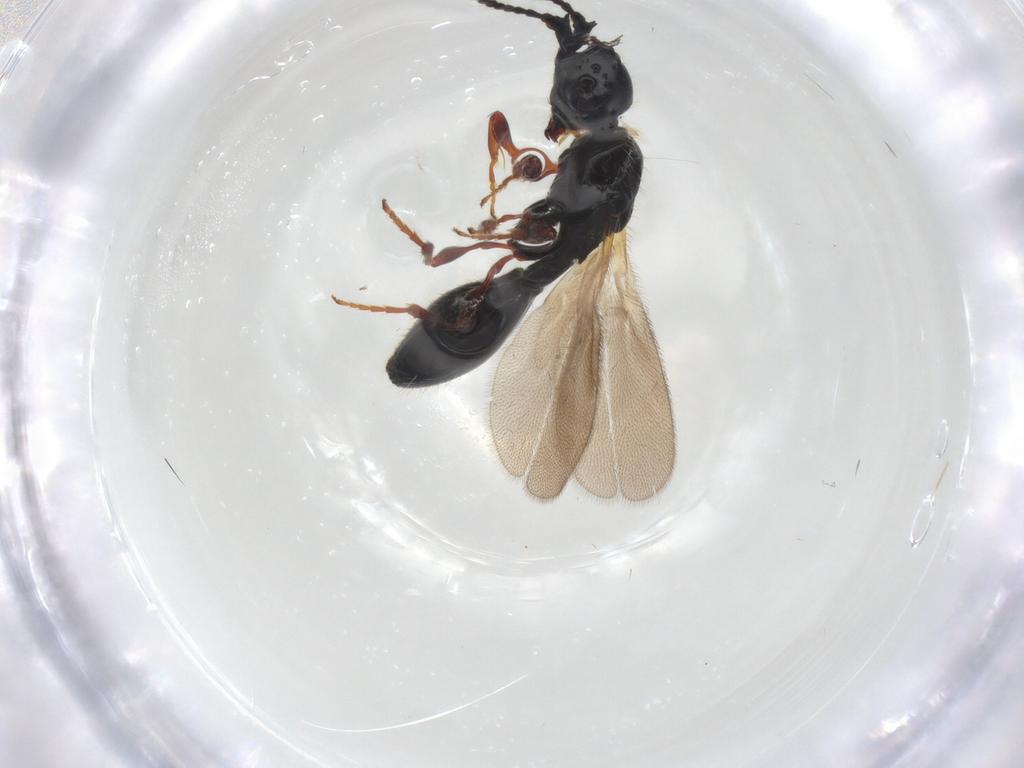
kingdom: Animalia
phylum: Arthropoda
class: Insecta
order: Hymenoptera
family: Diapriidae
